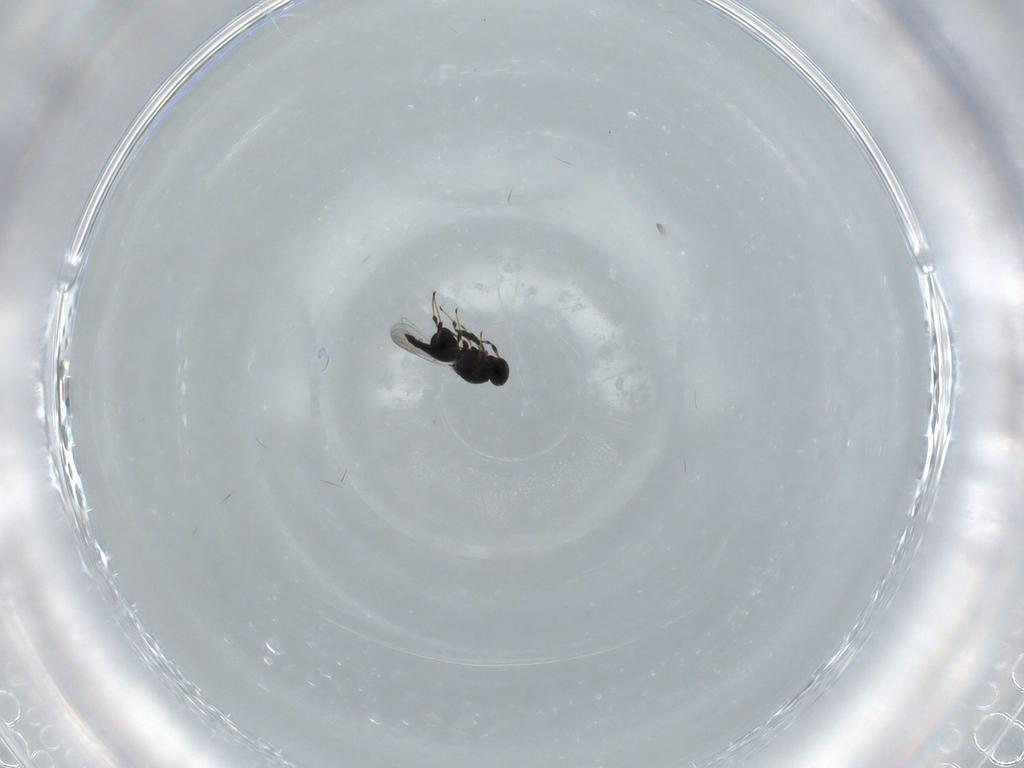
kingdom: Animalia
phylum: Arthropoda
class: Insecta
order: Hymenoptera
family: Platygastridae
